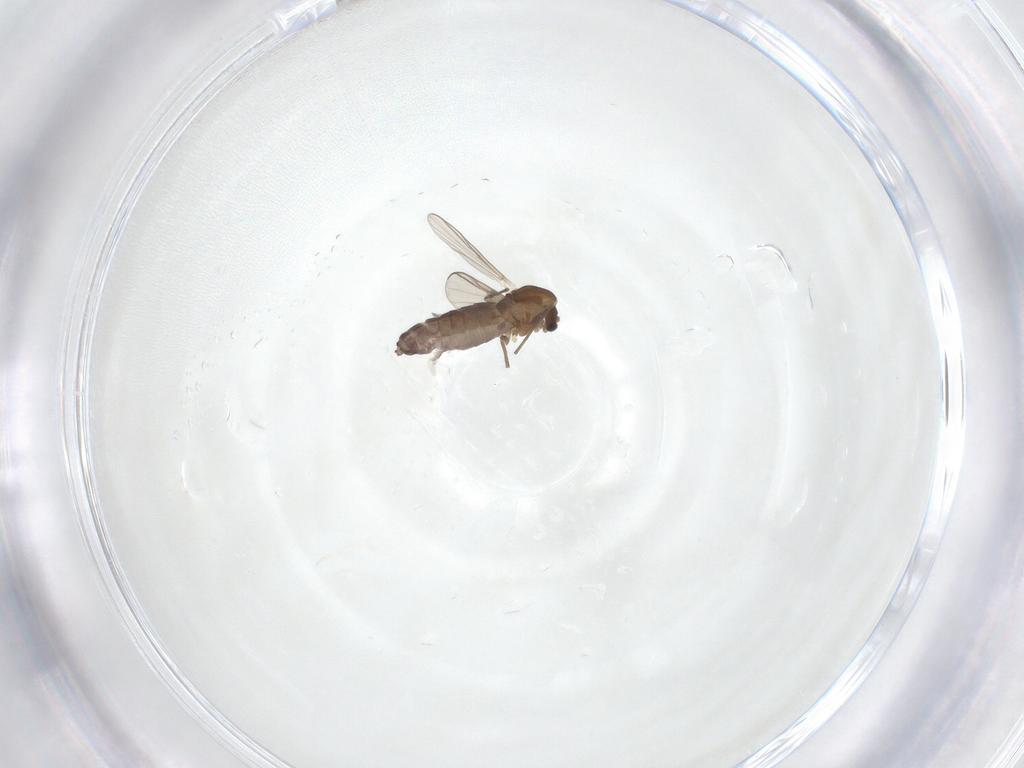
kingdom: Animalia
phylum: Arthropoda
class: Insecta
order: Diptera
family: Chironomidae
